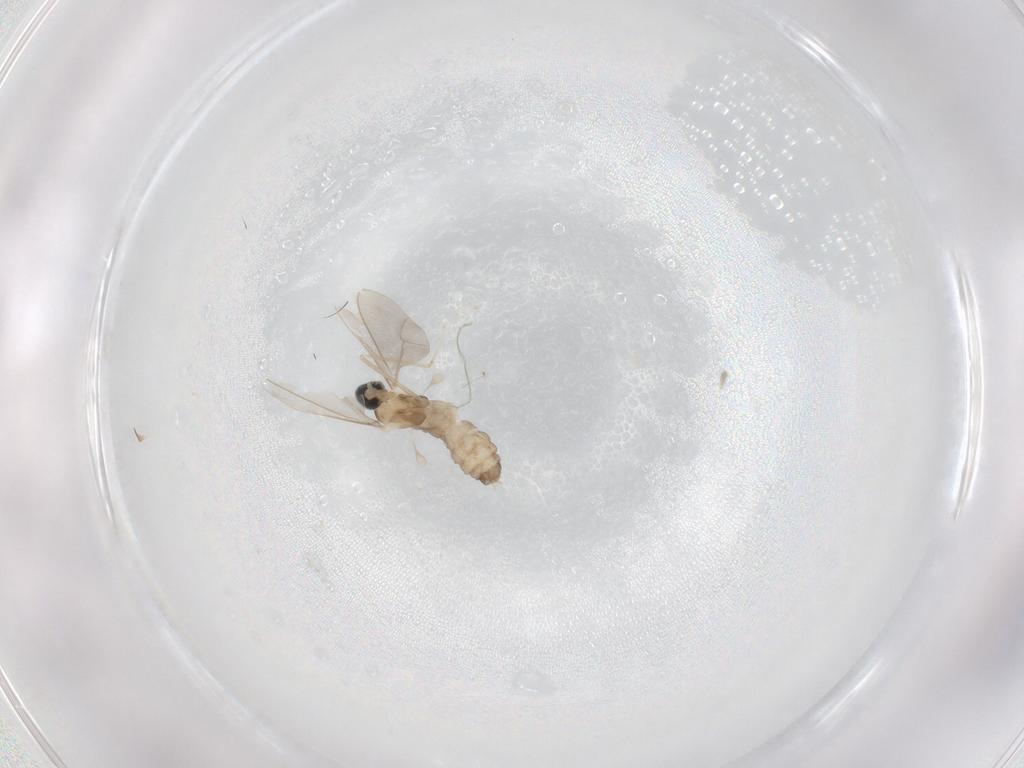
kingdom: Animalia
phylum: Arthropoda
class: Insecta
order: Diptera
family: Cecidomyiidae
